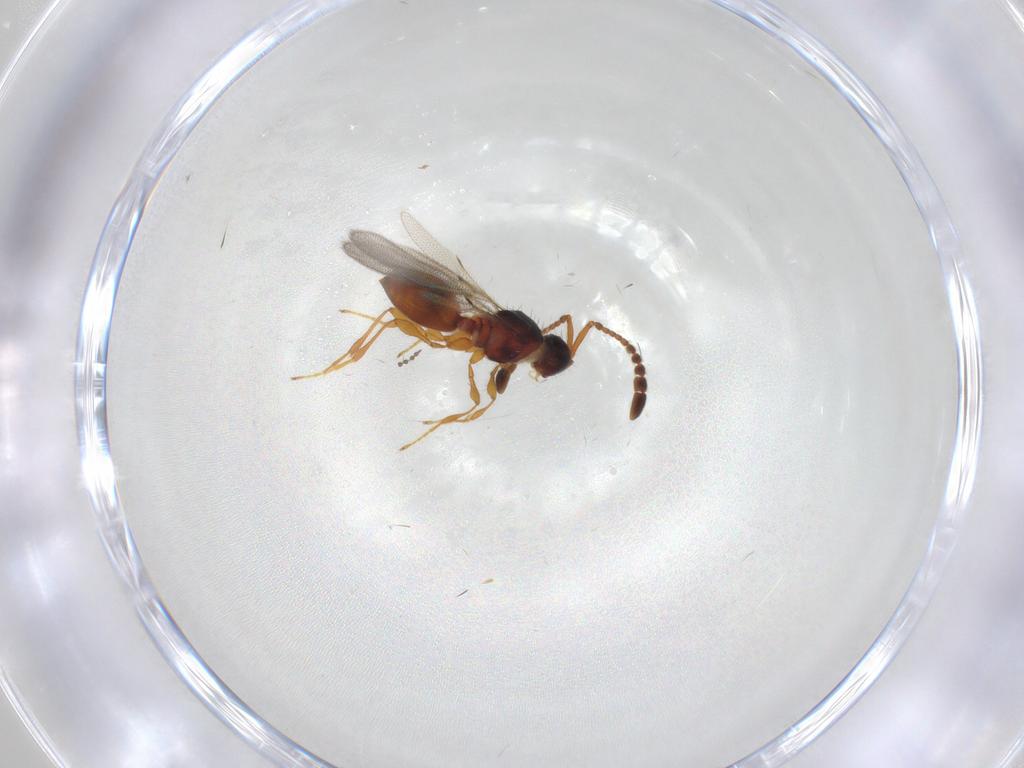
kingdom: Animalia
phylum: Arthropoda
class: Insecta
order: Hymenoptera
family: Diapriidae
